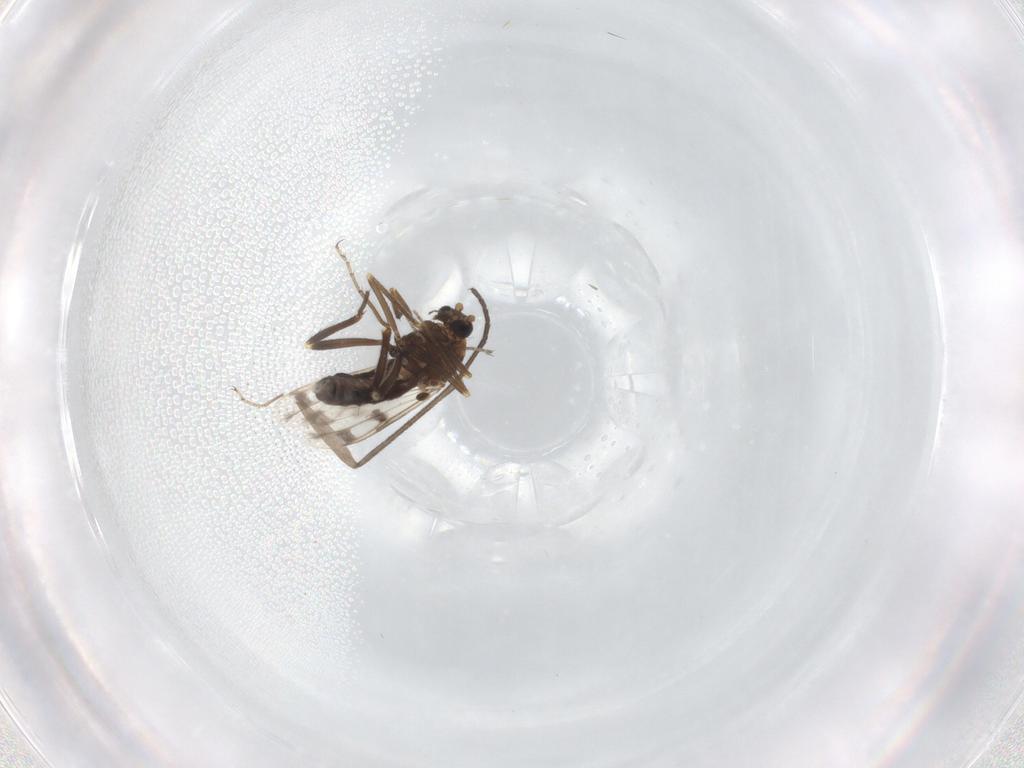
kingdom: Animalia
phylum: Arthropoda
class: Insecta
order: Diptera
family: Ceratopogonidae
